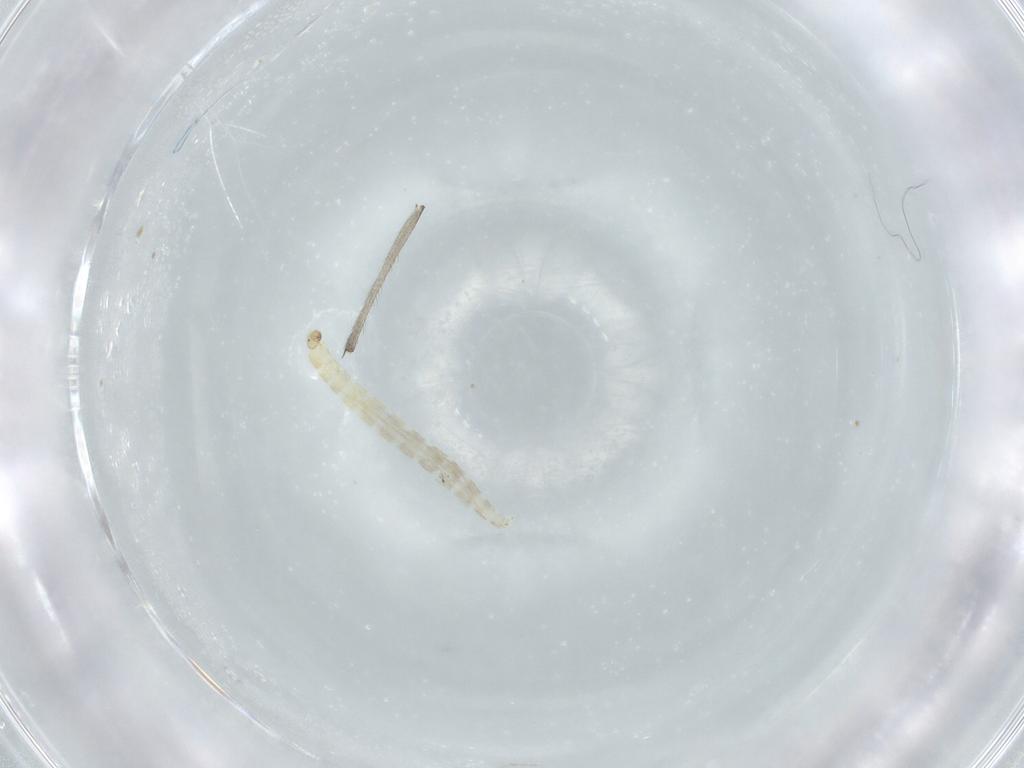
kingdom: Animalia
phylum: Arthropoda
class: Insecta
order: Diptera
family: Chironomidae
